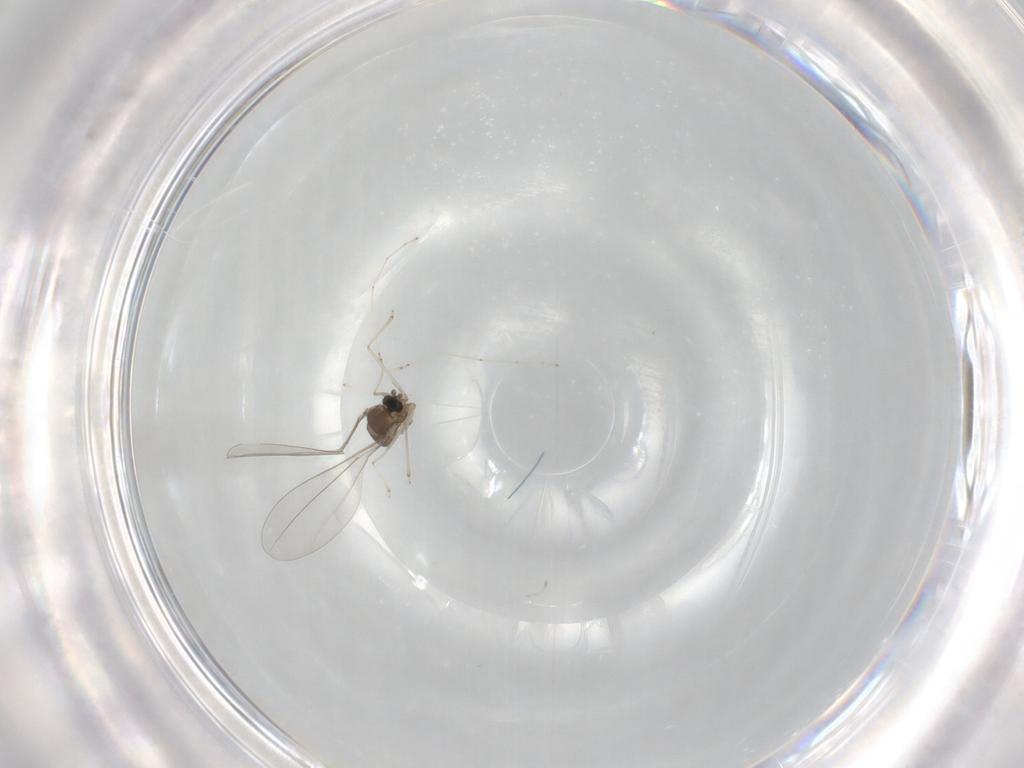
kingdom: Animalia
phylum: Arthropoda
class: Insecta
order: Diptera
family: Cecidomyiidae
